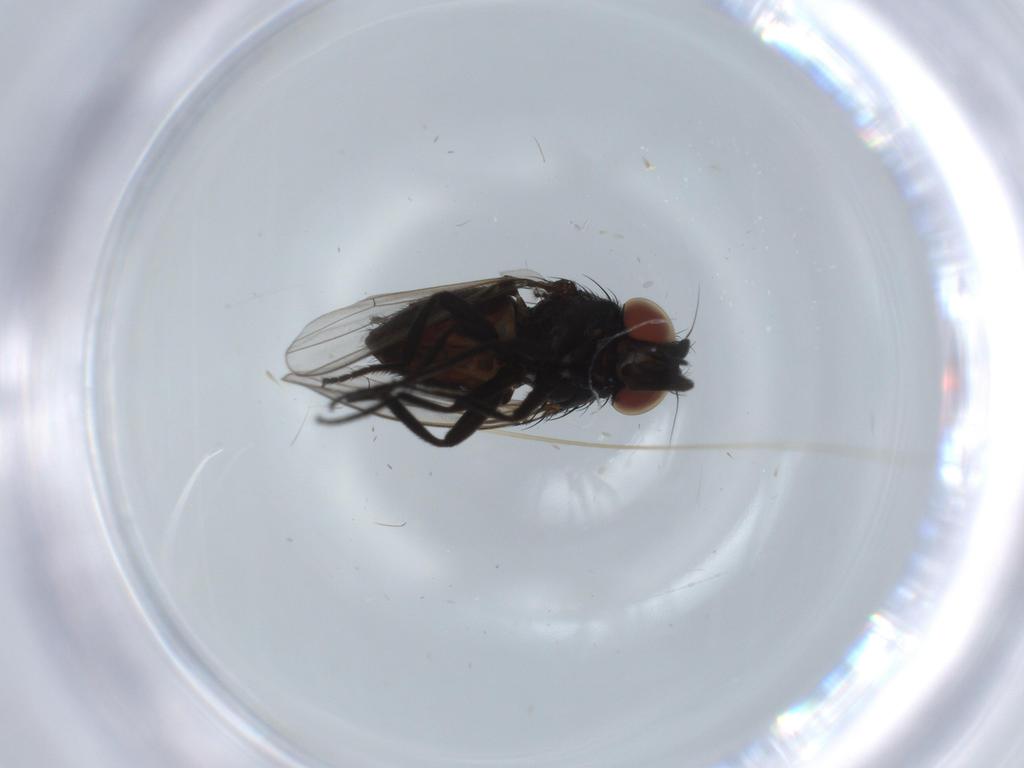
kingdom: Animalia
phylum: Arthropoda
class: Insecta
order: Diptera
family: Milichiidae
